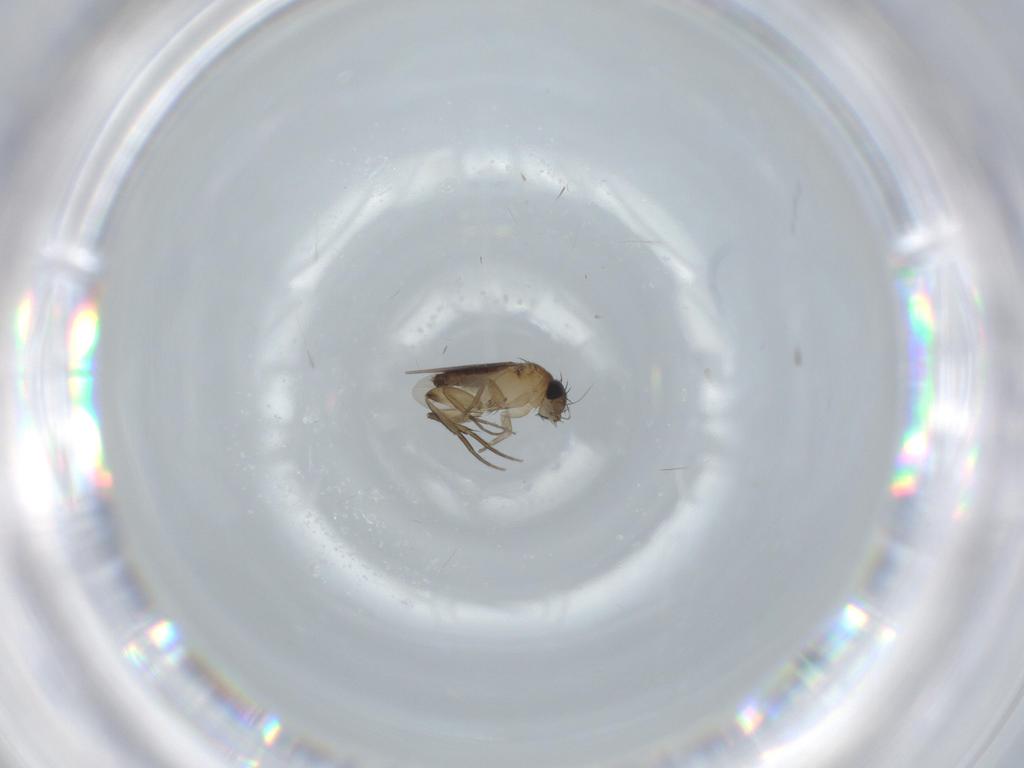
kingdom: Animalia
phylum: Arthropoda
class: Insecta
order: Diptera
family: Phoridae
